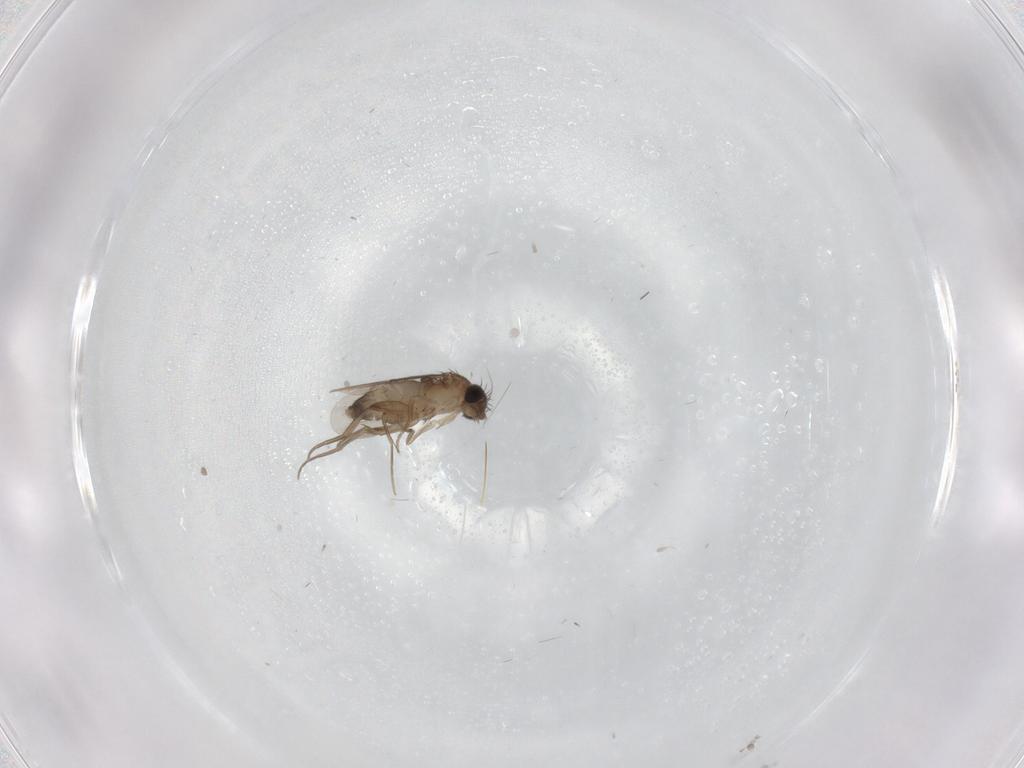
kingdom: Animalia
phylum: Arthropoda
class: Insecta
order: Diptera
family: Phoridae
